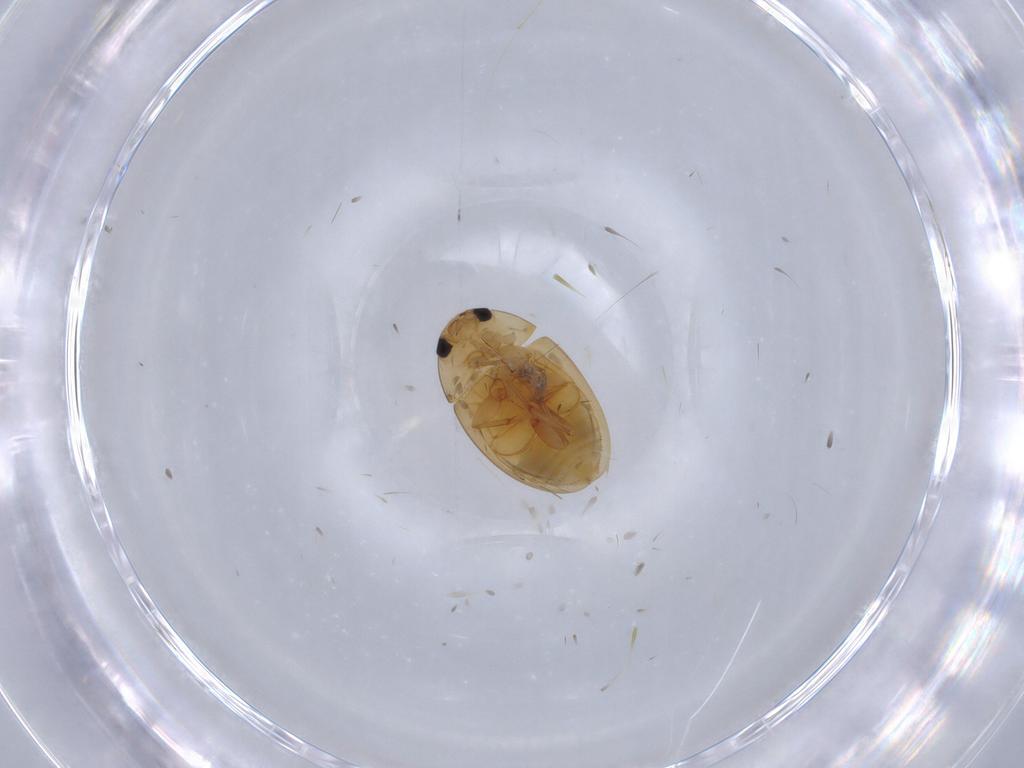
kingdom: Animalia
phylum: Arthropoda
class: Insecta
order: Coleoptera
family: Phalacridae
